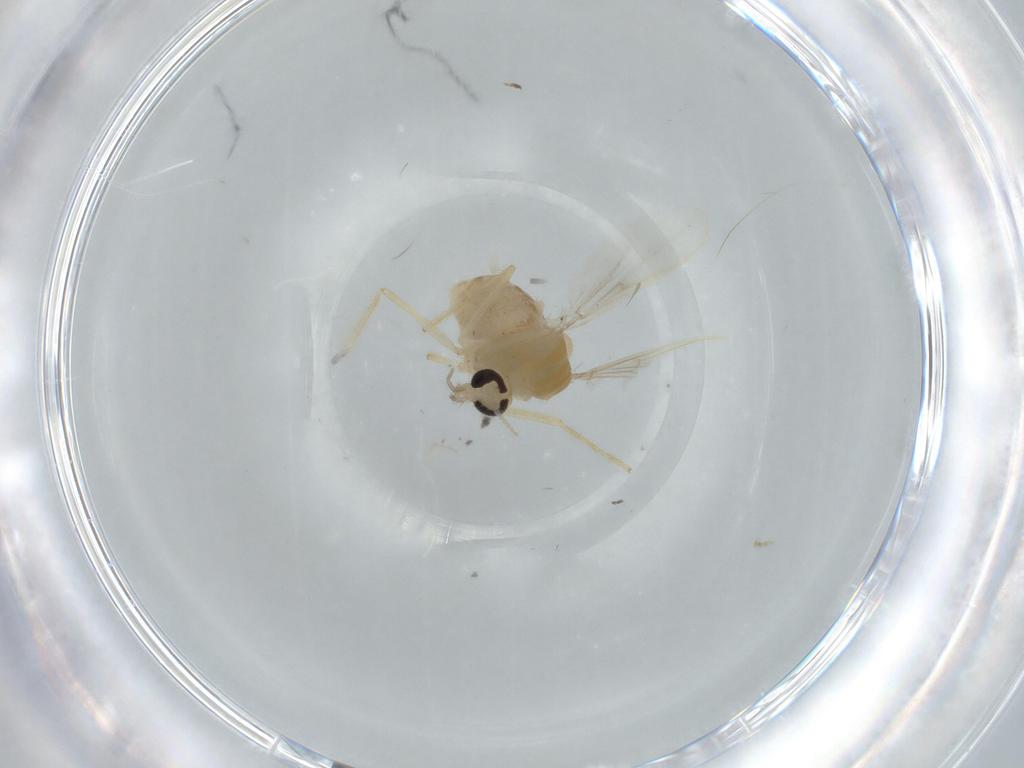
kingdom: Animalia
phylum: Arthropoda
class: Insecta
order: Diptera
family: Chironomidae
